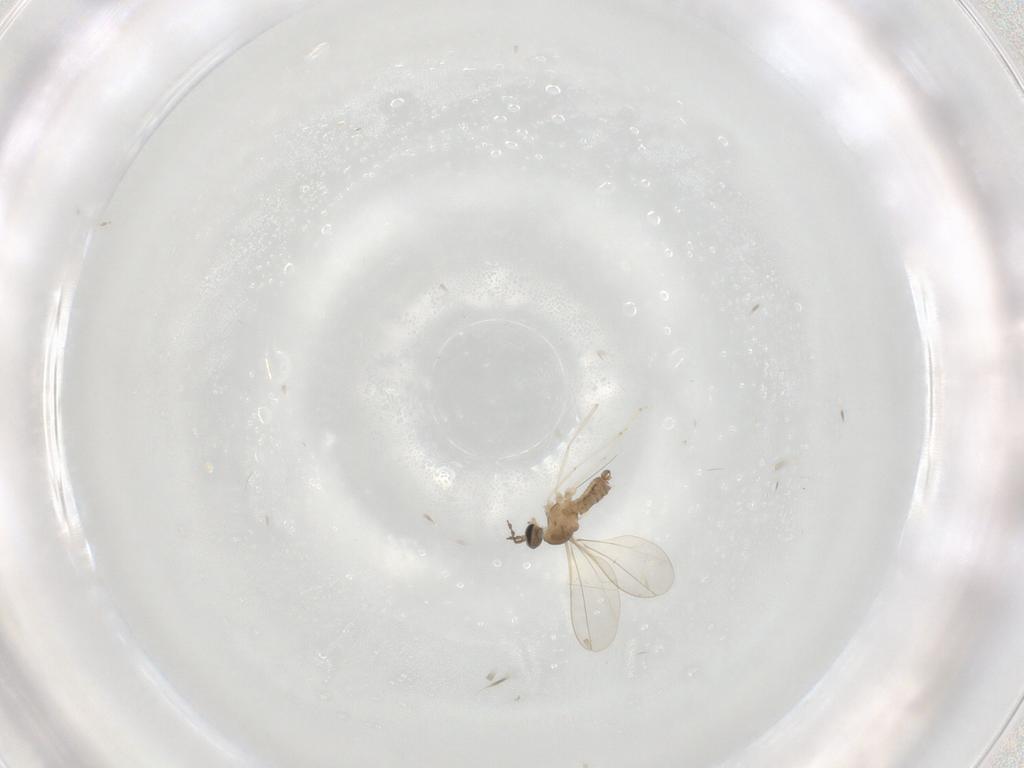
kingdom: Animalia
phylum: Arthropoda
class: Insecta
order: Diptera
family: Cecidomyiidae
